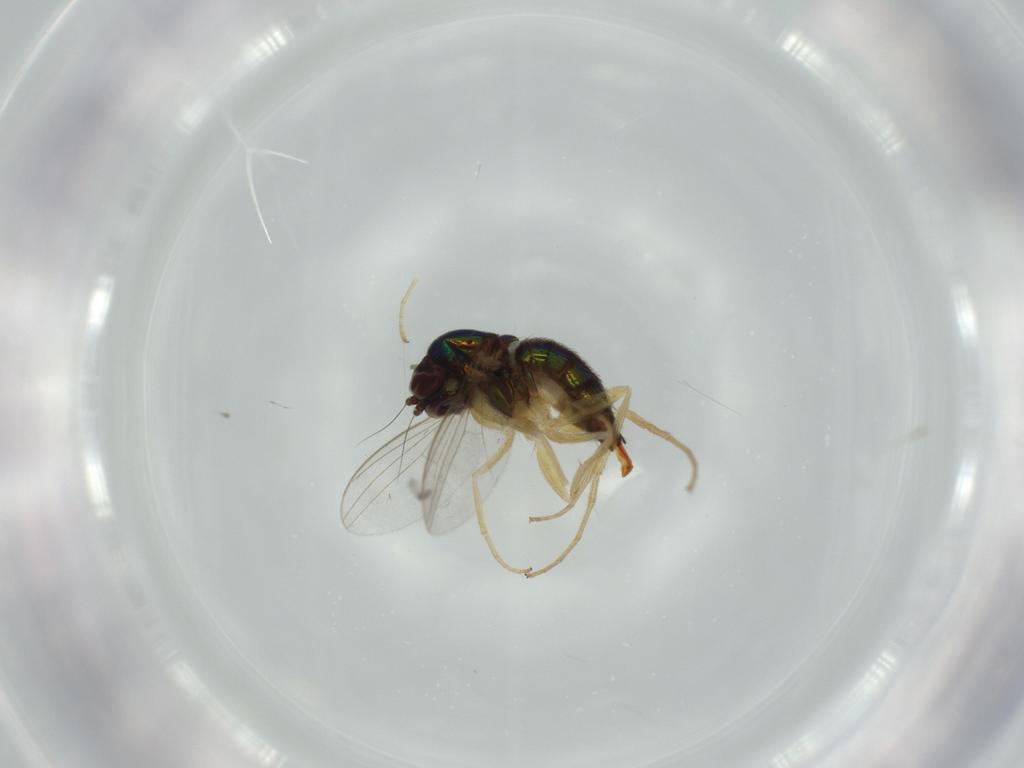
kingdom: Animalia
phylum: Arthropoda
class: Insecta
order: Diptera
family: Dolichopodidae
